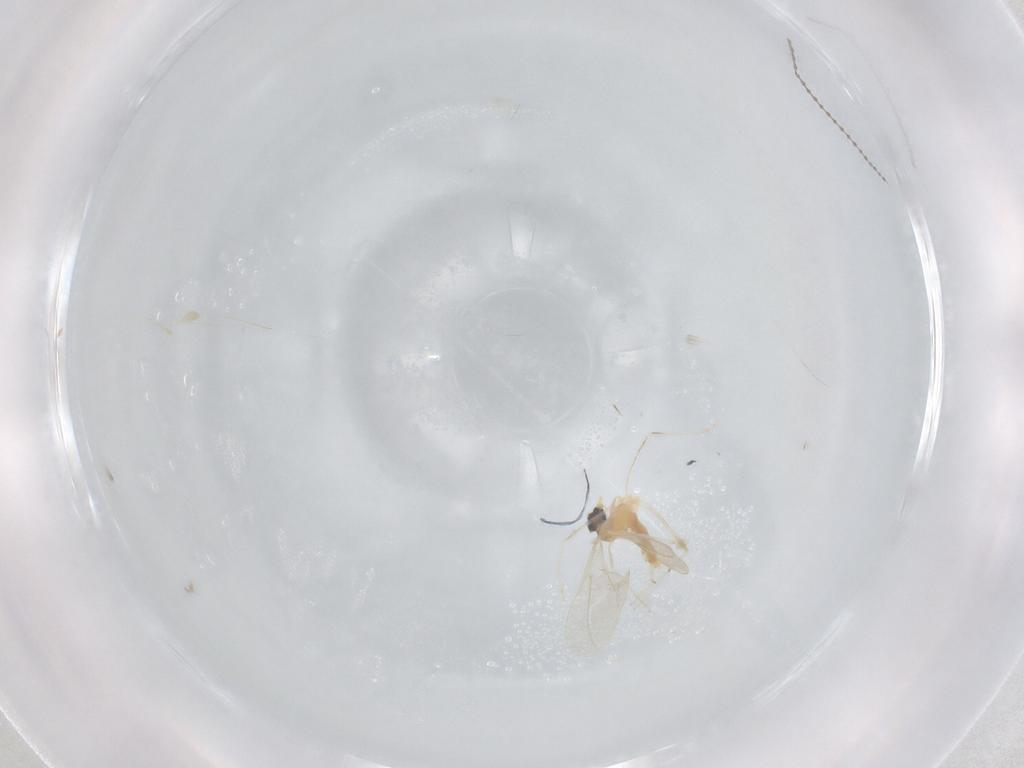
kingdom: Animalia
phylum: Arthropoda
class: Insecta
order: Diptera
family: Cecidomyiidae
